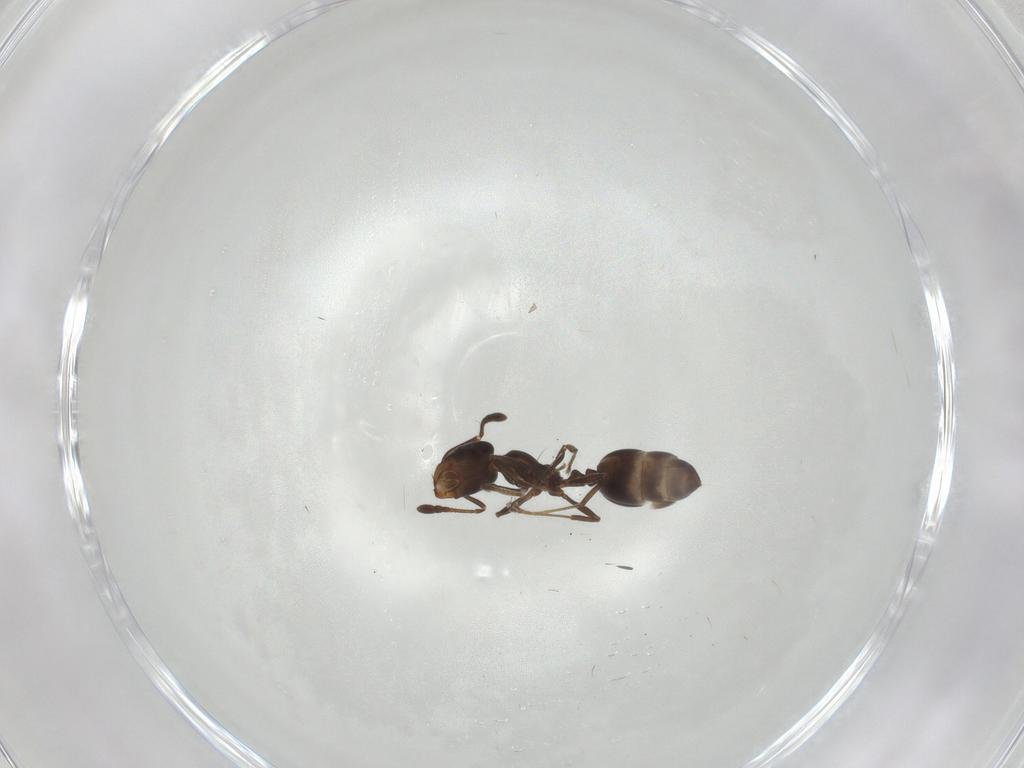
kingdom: Animalia
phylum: Arthropoda
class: Insecta
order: Hymenoptera
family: Formicidae
